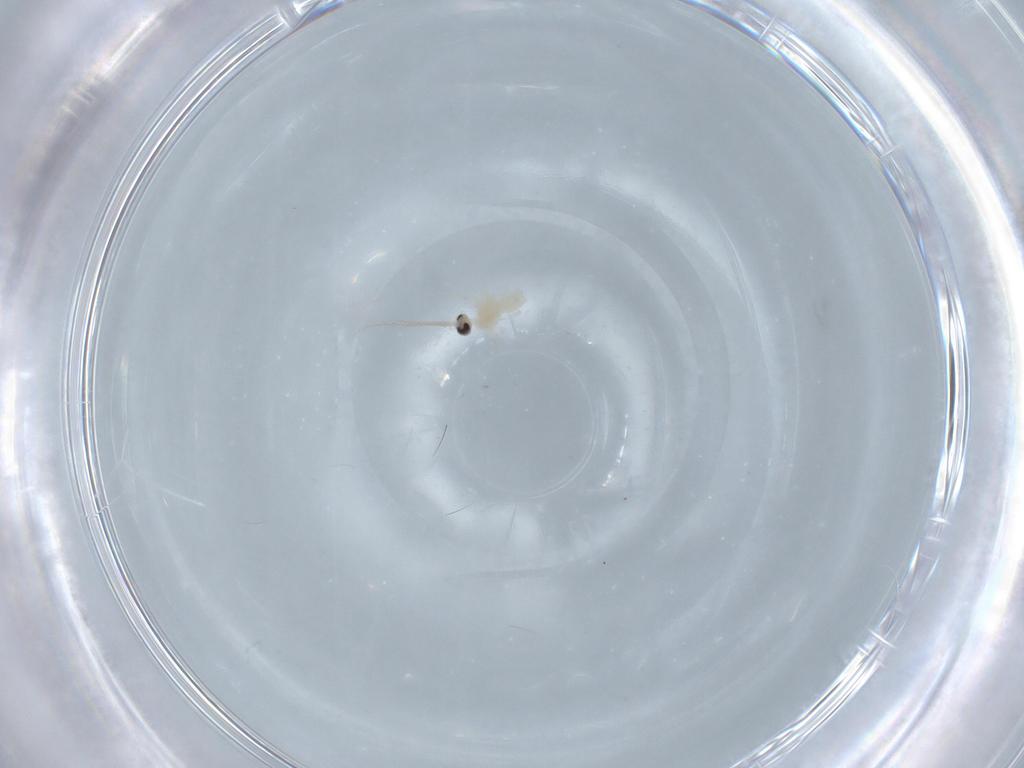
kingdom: Animalia
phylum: Arthropoda
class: Insecta
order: Diptera
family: Cecidomyiidae
